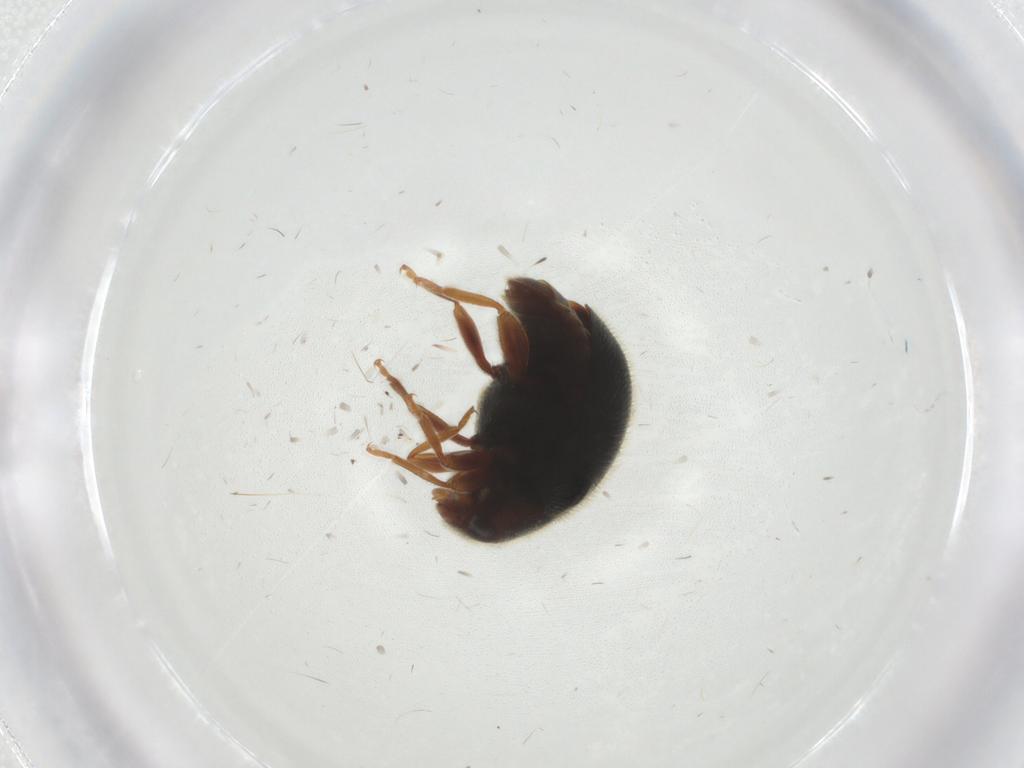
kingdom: Animalia
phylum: Arthropoda
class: Insecta
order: Coleoptera
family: Coccinellidae
